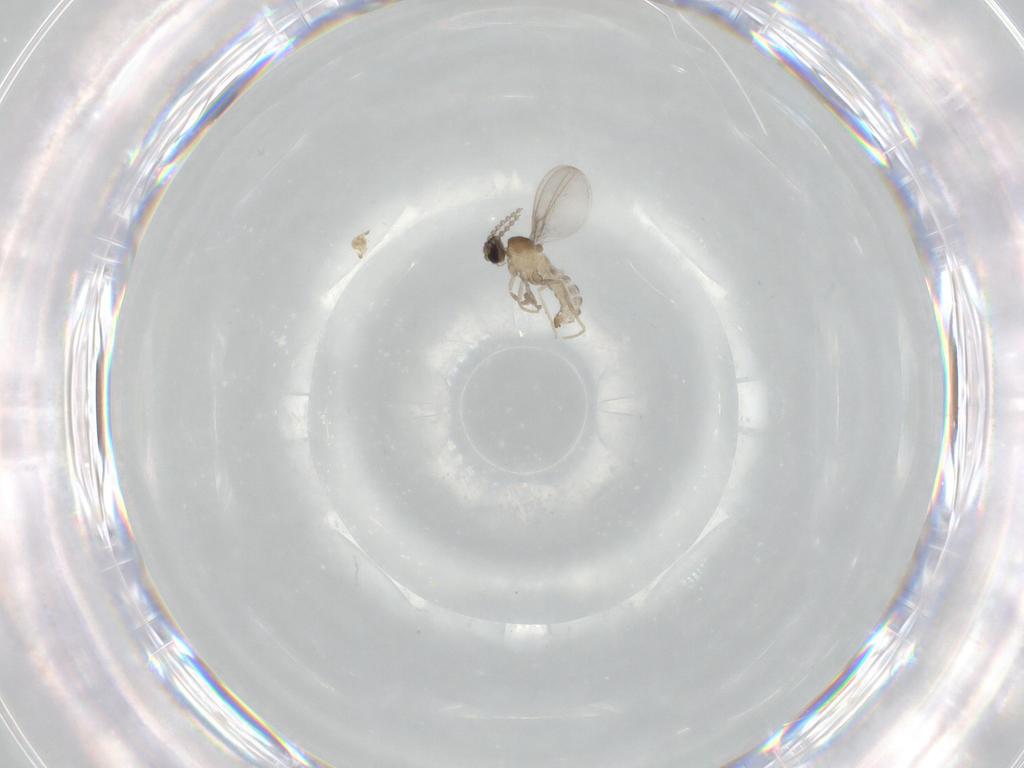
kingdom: Animalia
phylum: Arthropoda
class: Insecta
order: Diptera
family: Cecidomyiidae
